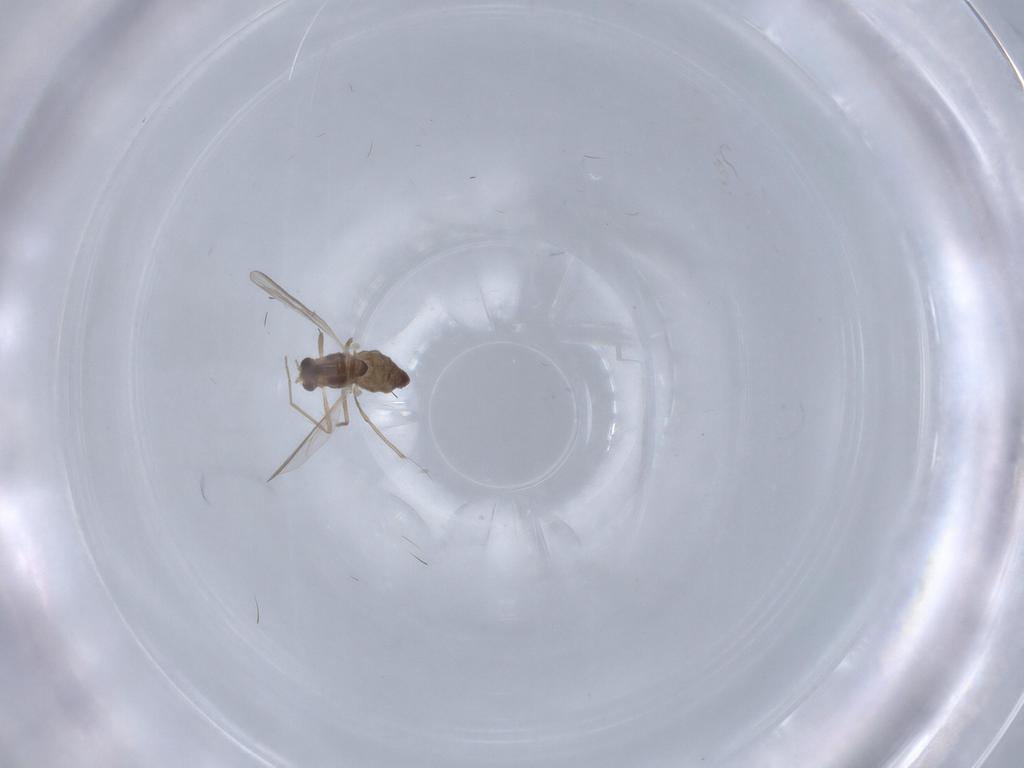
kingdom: Animalia
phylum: Arthropoda
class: Insecta
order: Diptera
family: Chironomidae
